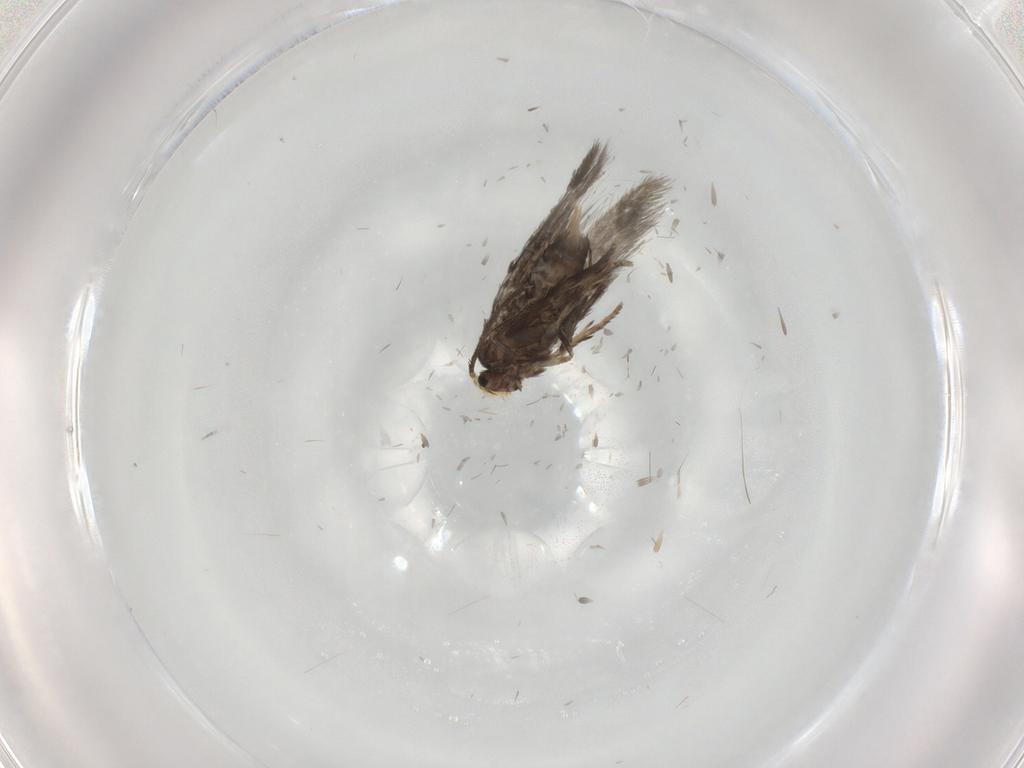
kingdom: Animalia
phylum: Arthropoda
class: Insecta
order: Lepidoptera
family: Nepticulidae
